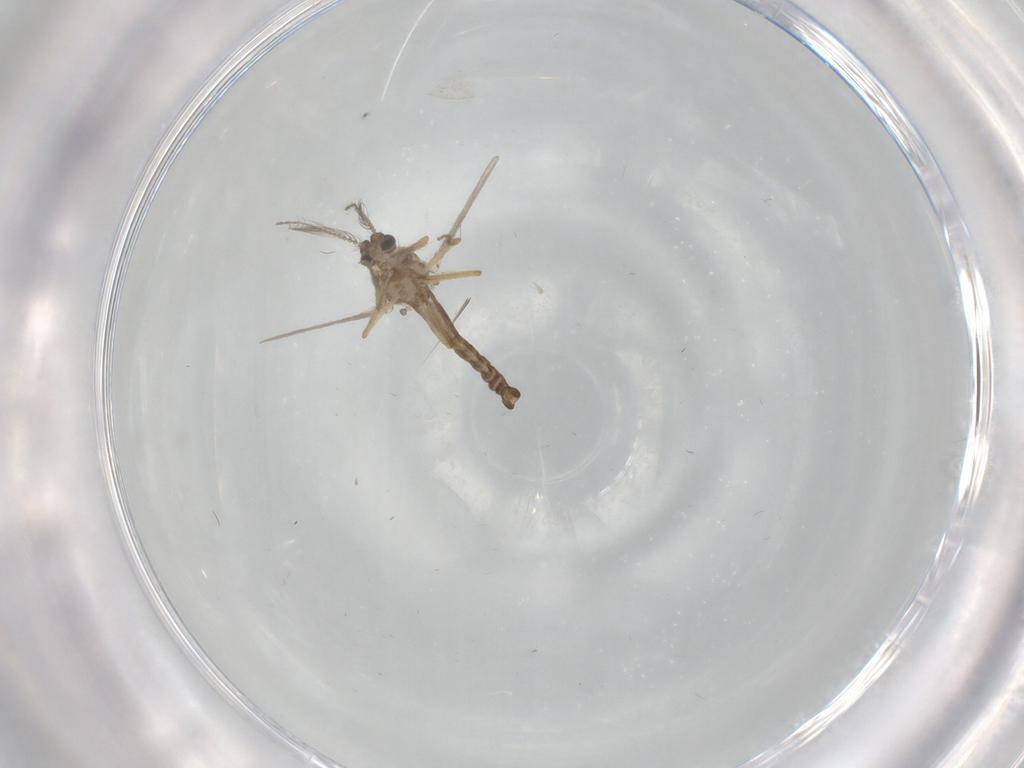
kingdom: Animalia
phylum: Arthropoda
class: Insecta
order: Diptera
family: Ceratopogonidae
